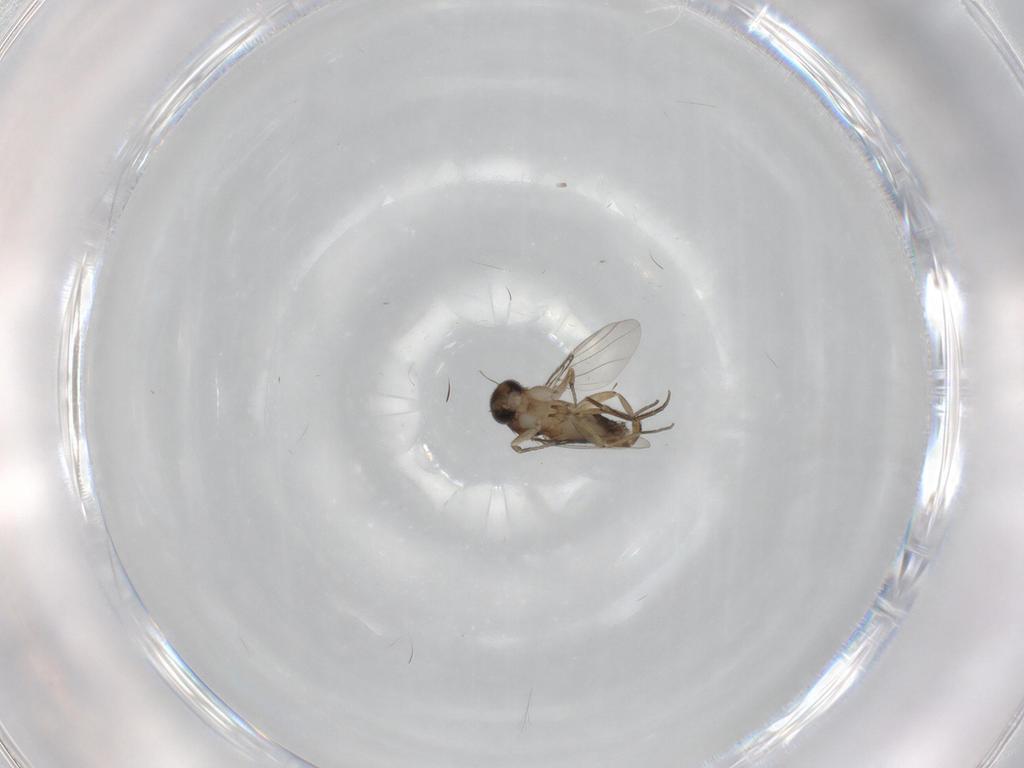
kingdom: Animalia
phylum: Arthropoda
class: Insecta
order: Diptera
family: Phoridae
